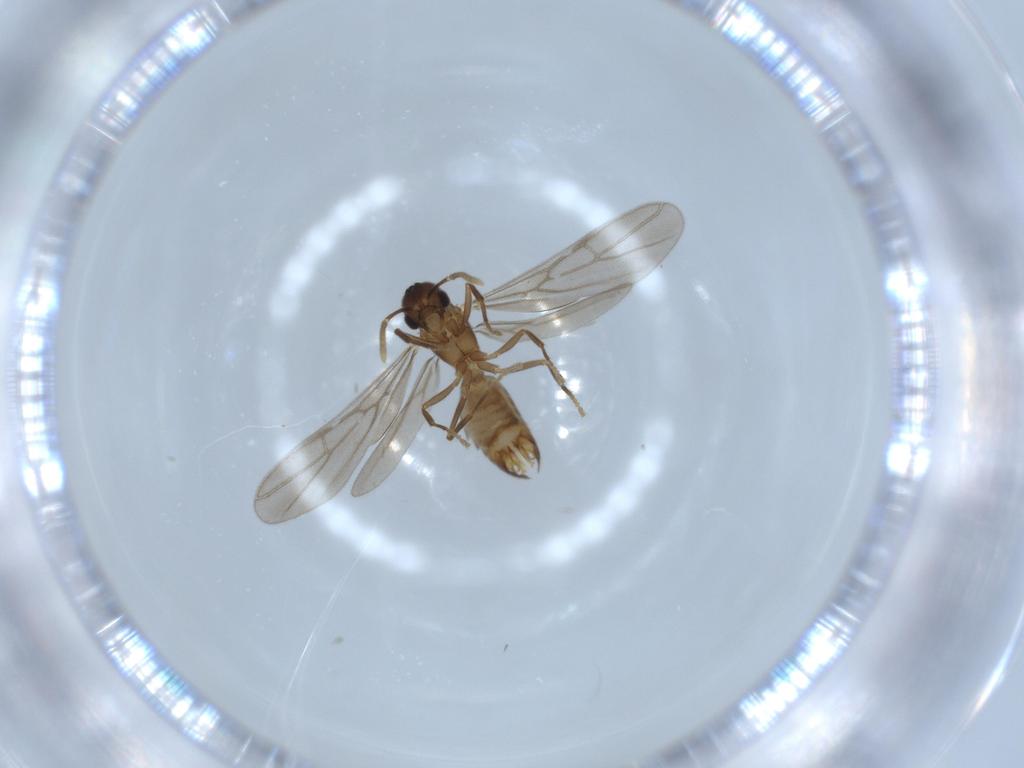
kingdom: Animalia
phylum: Arthropoda
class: Insecta
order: Hymenoptera
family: Formicidae
